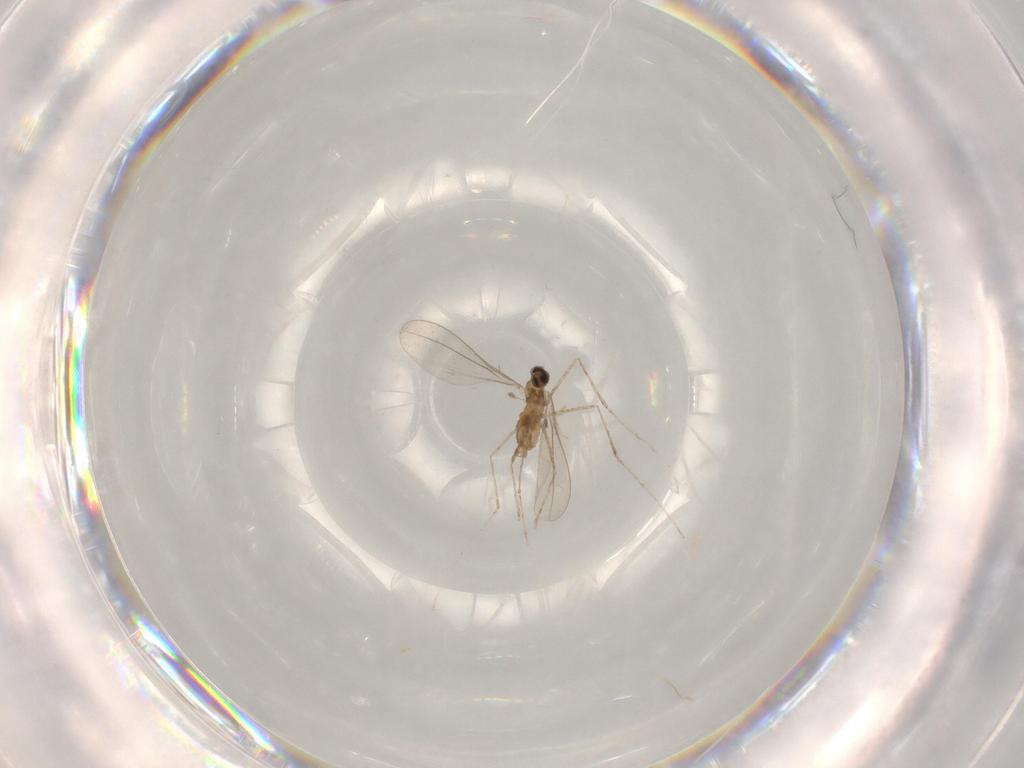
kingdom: Animalia
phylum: Arthropoda
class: Insecta
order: Diptera
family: Cecidomyiidae
